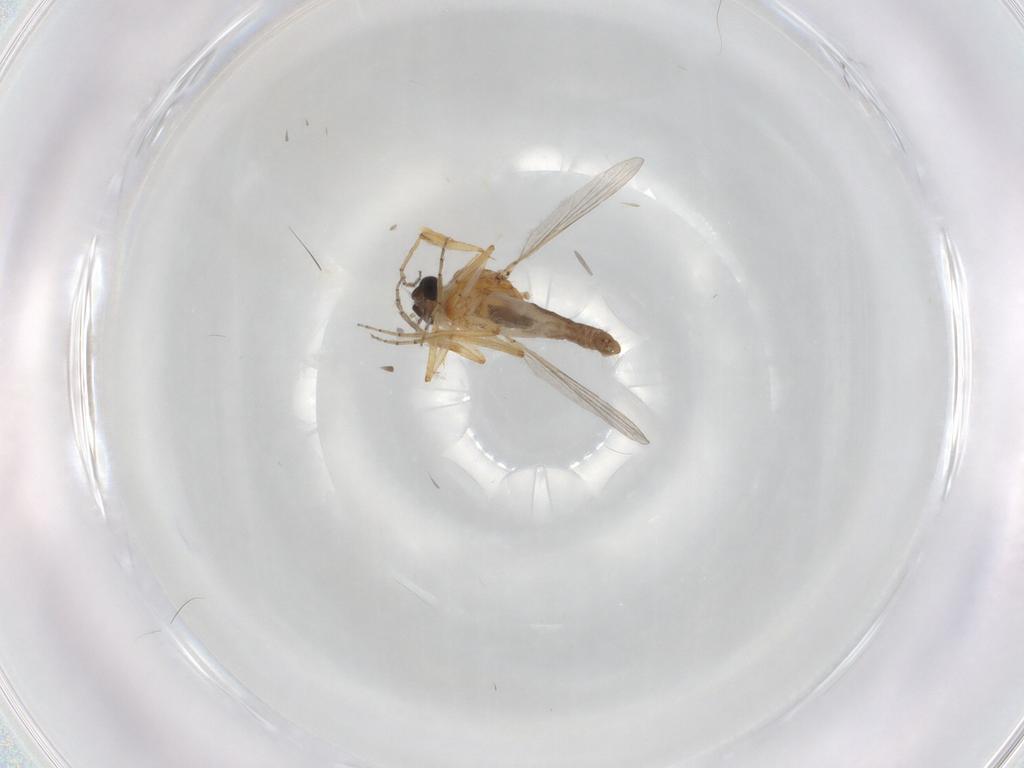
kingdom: Animalia
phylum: Arthropoda
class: Insecta
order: Diptera
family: Ceratopogonidae
